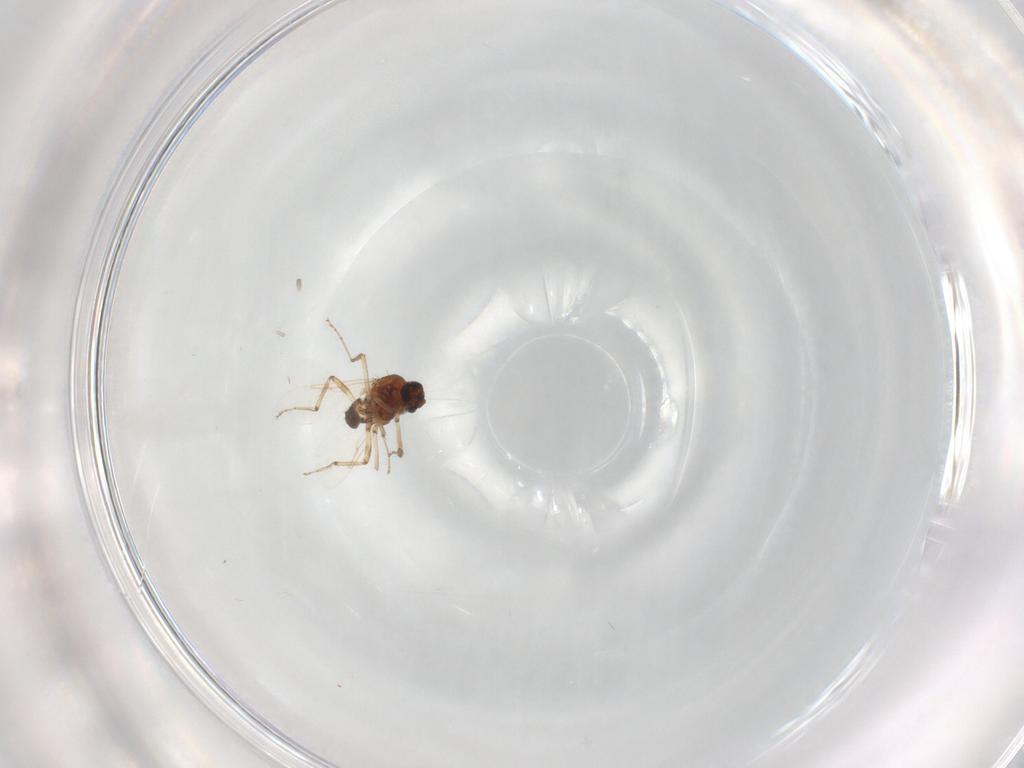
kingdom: Animalia
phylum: Arthropoda
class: Insecta
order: Diptera
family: Ceratopogonidae
